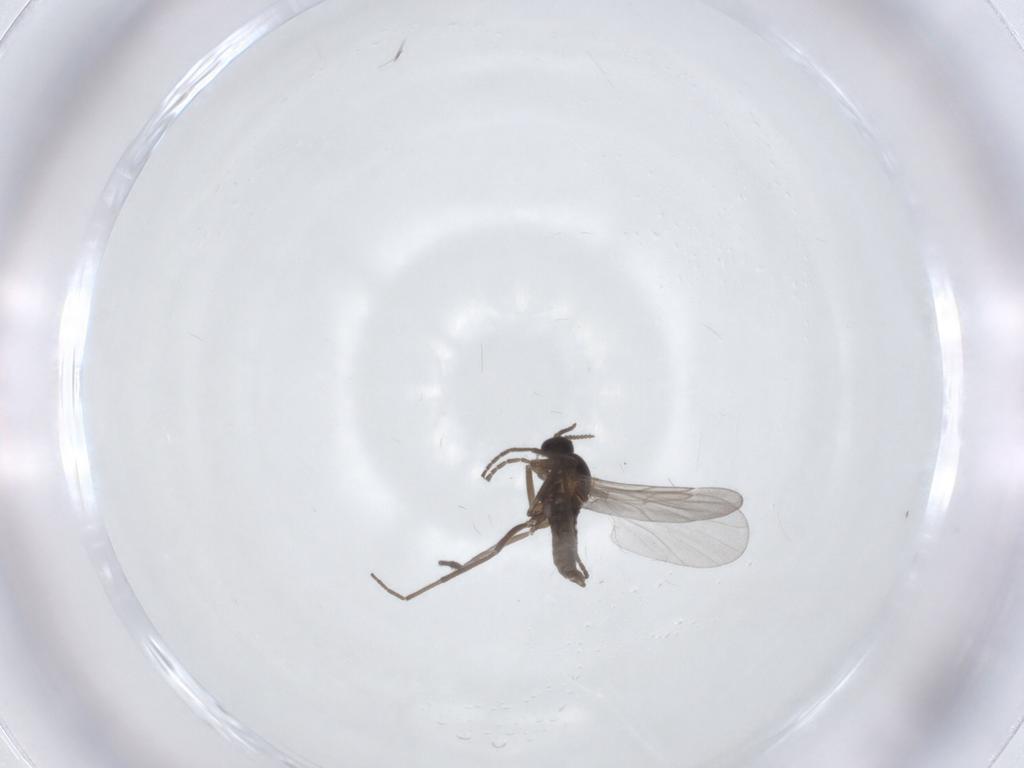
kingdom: Animalia
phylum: Arthropoda
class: Insecta
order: Diptera
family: Cecidomyiidae
